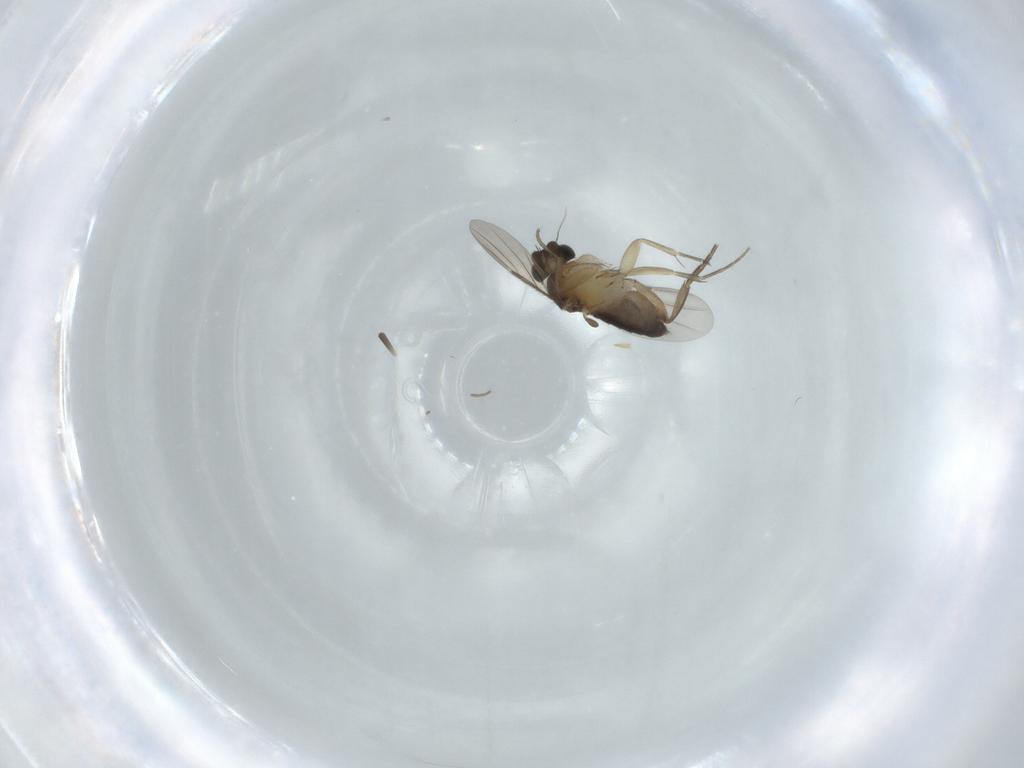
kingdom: Animalia
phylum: Arthropoda
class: Insecta
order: Diptera
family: Phoridae
